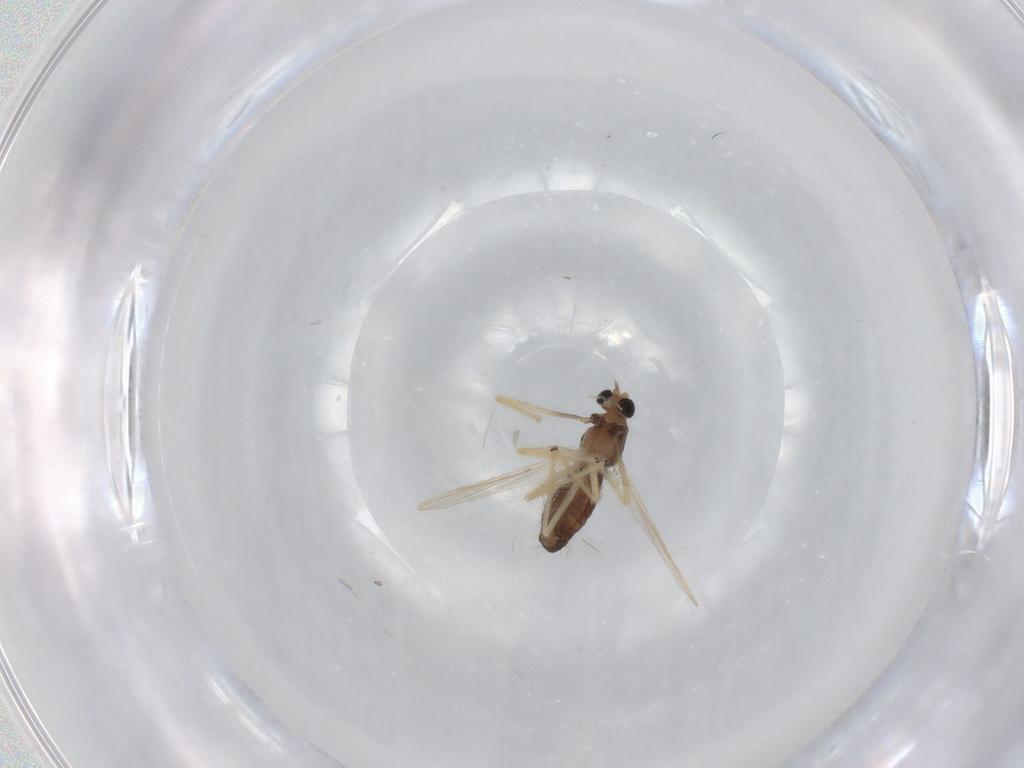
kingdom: Animalia
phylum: Arthropoda
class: Insecta
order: Diptera
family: Chironomidae
